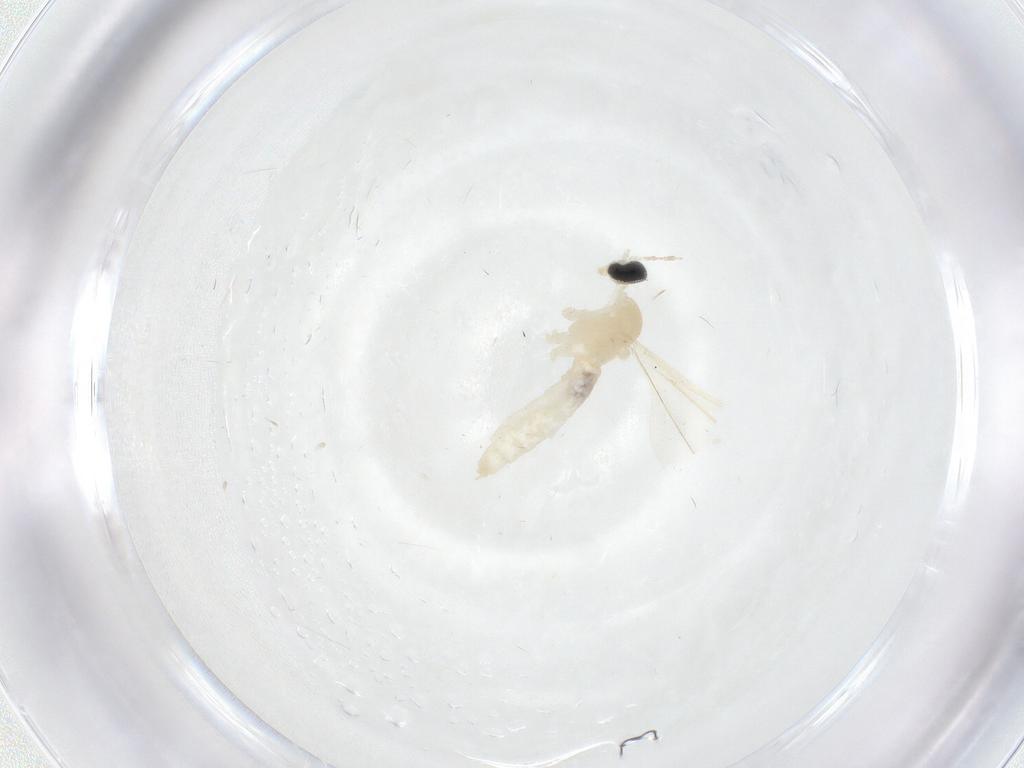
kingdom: Animalia
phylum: Arthropoda
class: Insecta
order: Diptera
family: Cecidomyiidae
